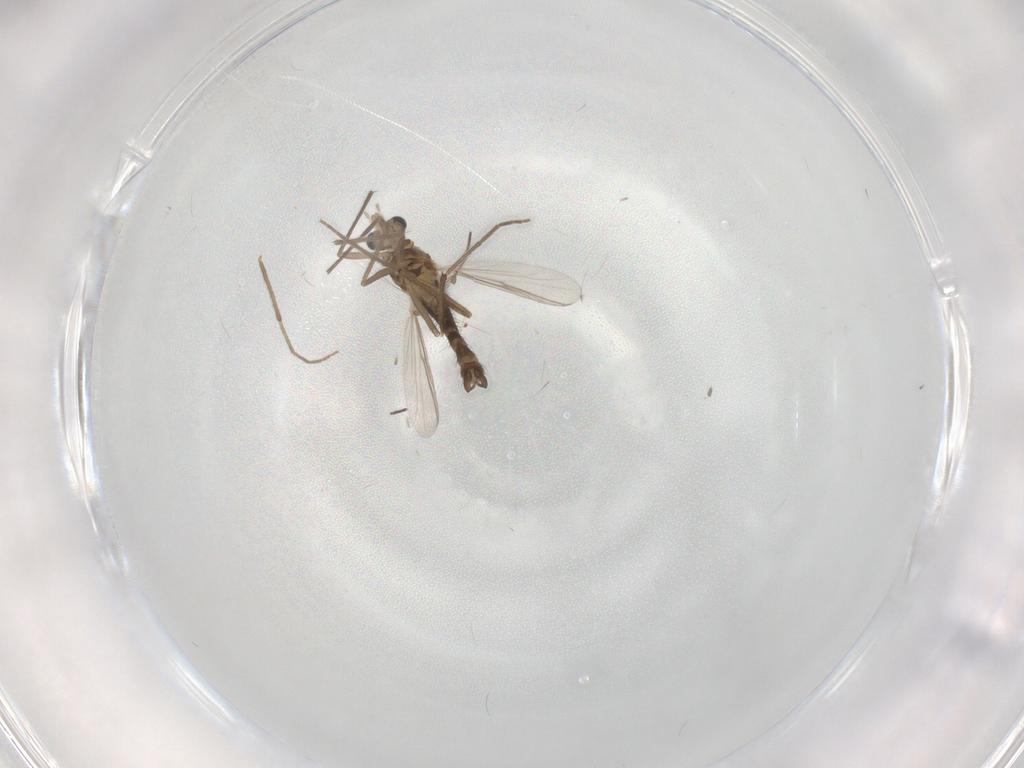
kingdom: Animalia
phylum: Arthropoda
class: Insecta
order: Diptera
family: Chironomidae
